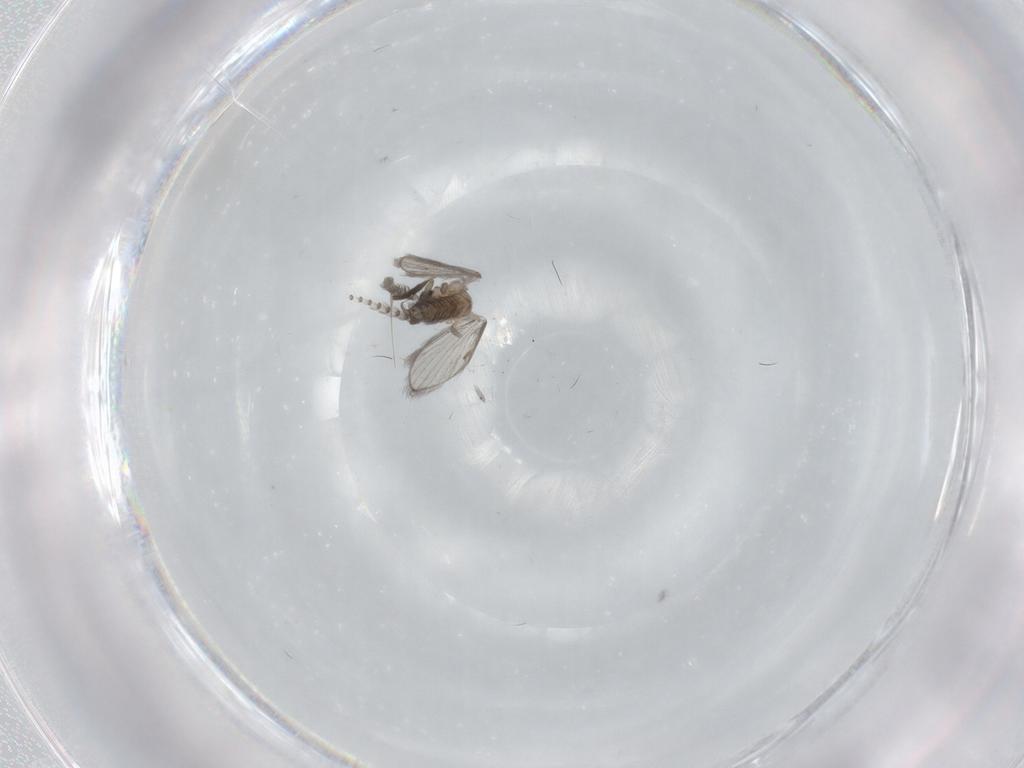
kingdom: Animalia
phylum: Arthropoda
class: Insecta
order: Diptera
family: Psychodidae
